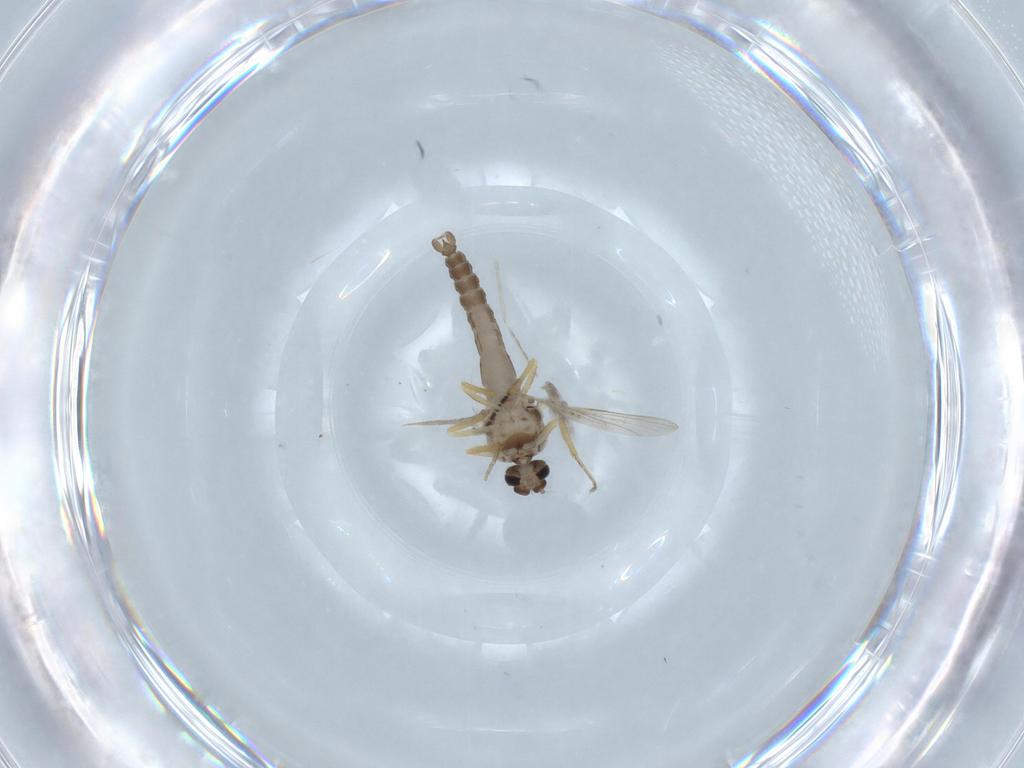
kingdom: Animalia
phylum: Arthropoda
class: Insecta
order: Diptera
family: Ceratopogonidae
